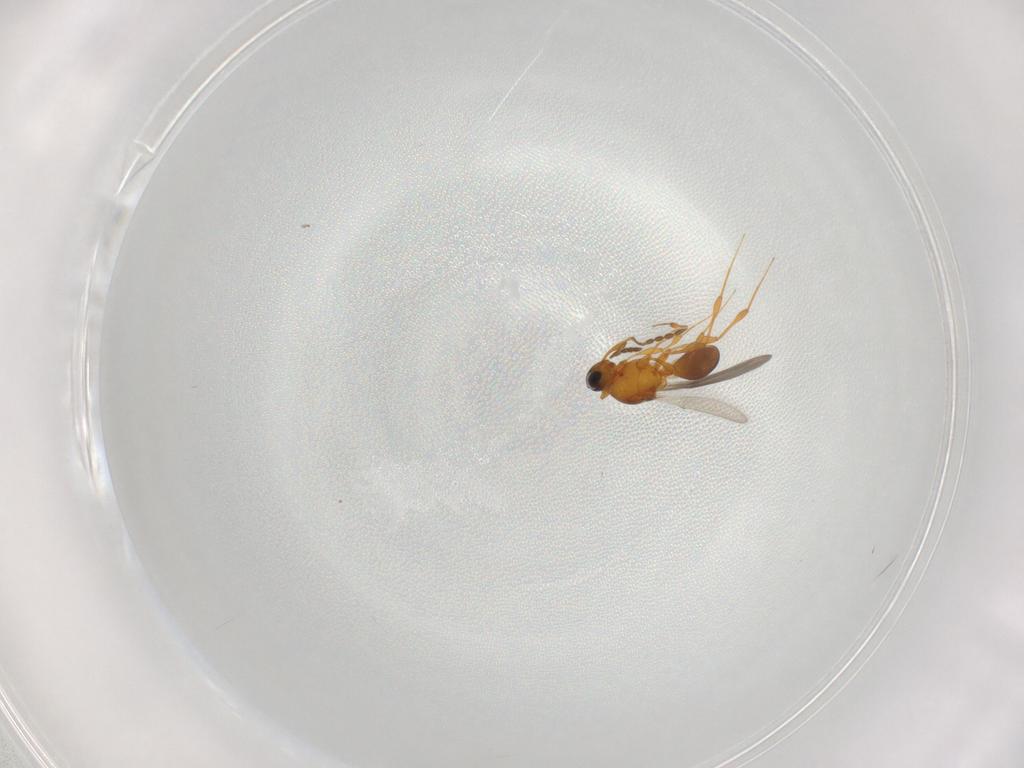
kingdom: Animalia
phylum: Arthropoda
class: Insecta
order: Hymenoptera
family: Platygastridae
